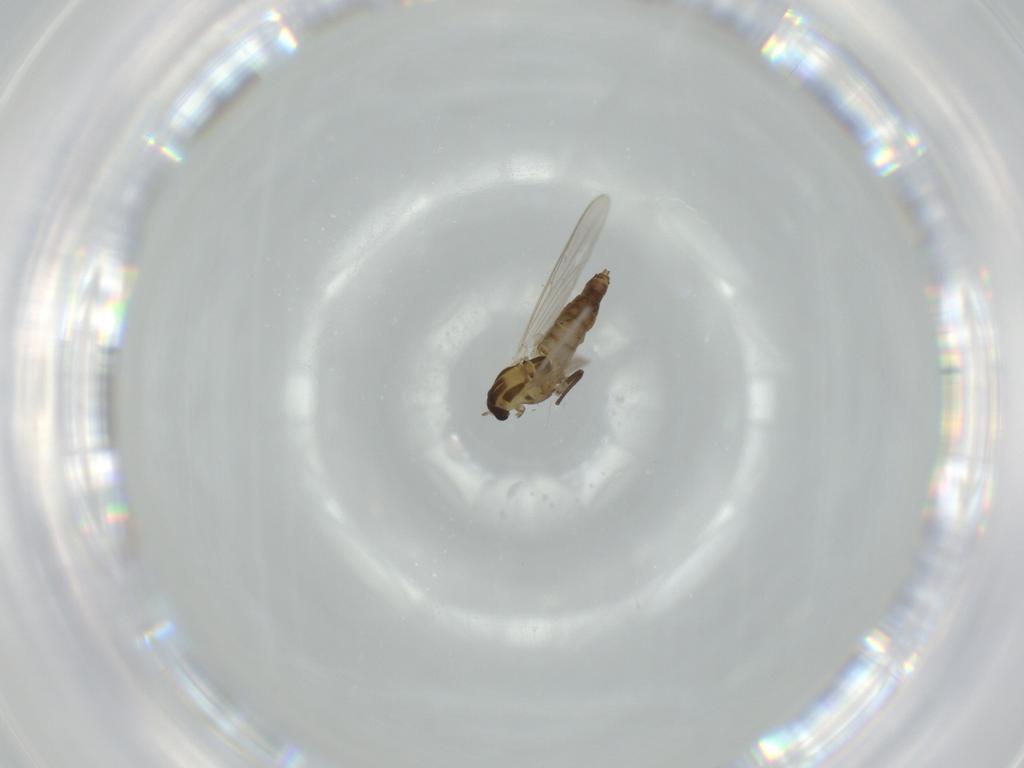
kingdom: Animalia
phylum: Arthropoda
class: Insecta
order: Diptera
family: Chironomidae
